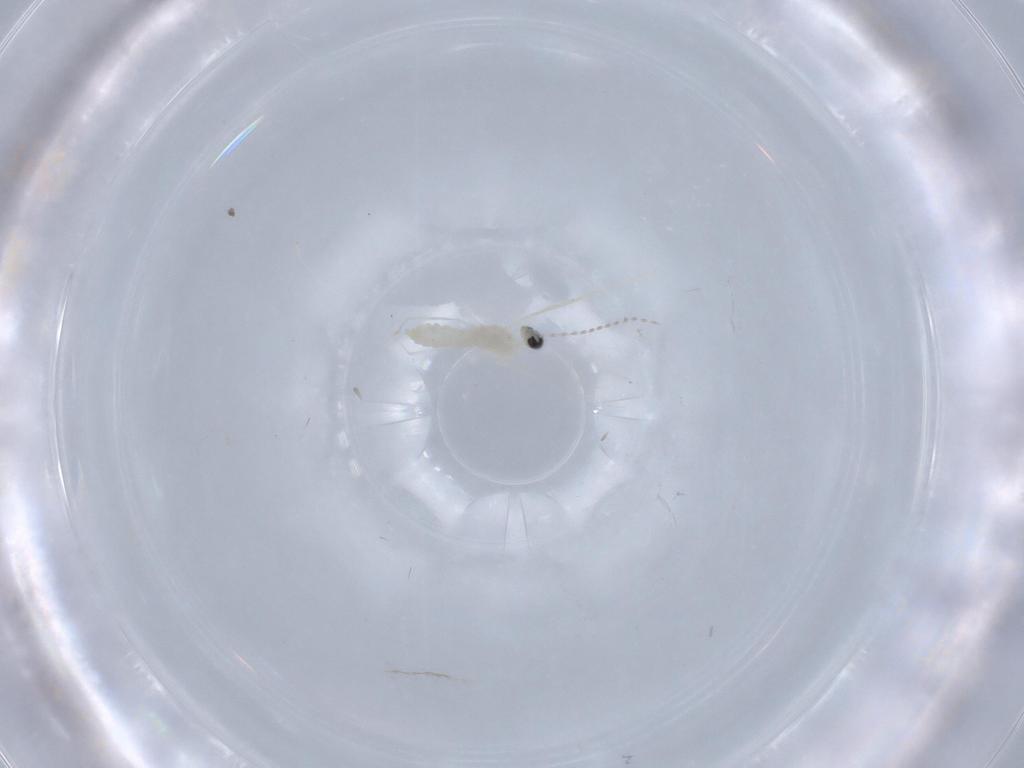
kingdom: Animalia
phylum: Arthropoda
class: Insecta
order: Diptera
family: Cecidomyiidae
